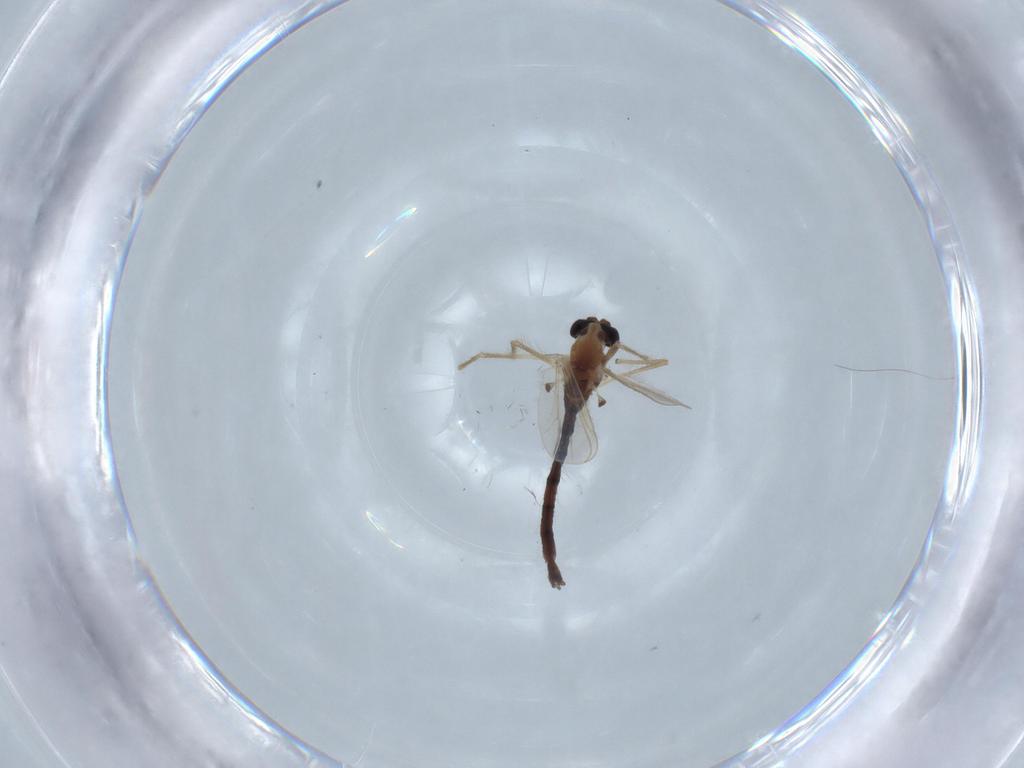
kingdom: Animalia
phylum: Arthropoda
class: Insecta
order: Diptera
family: Chironomidae
